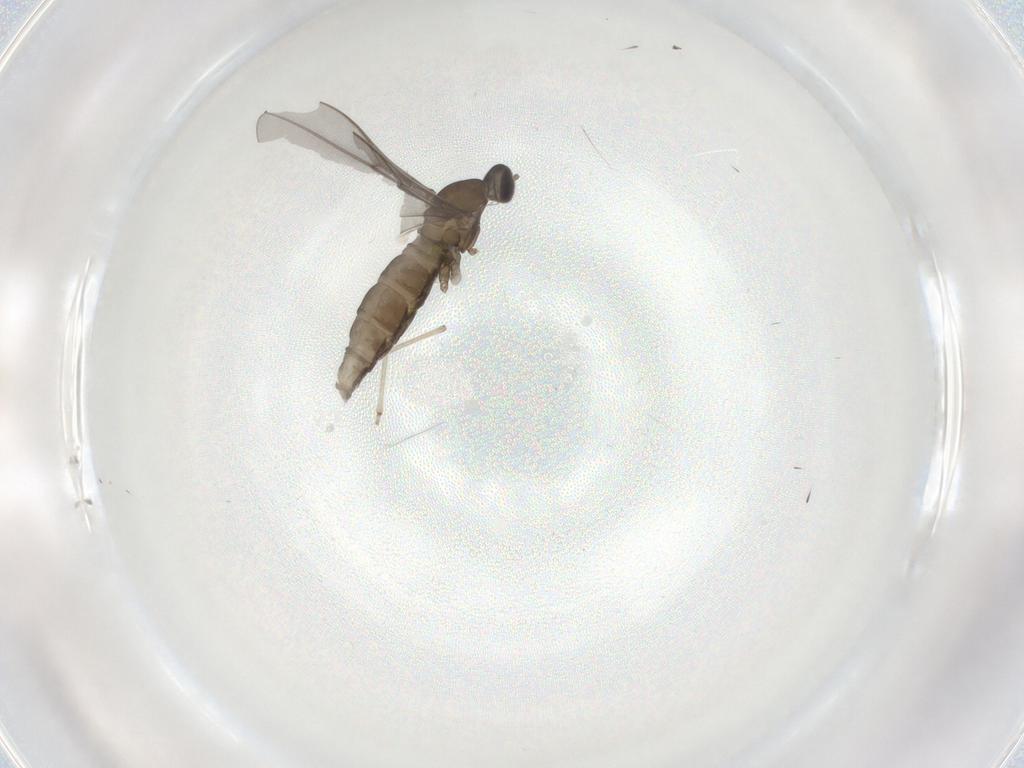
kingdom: Animalia
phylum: Arthropoda
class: Insecta
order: Diptera
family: Cecidomyiidae
